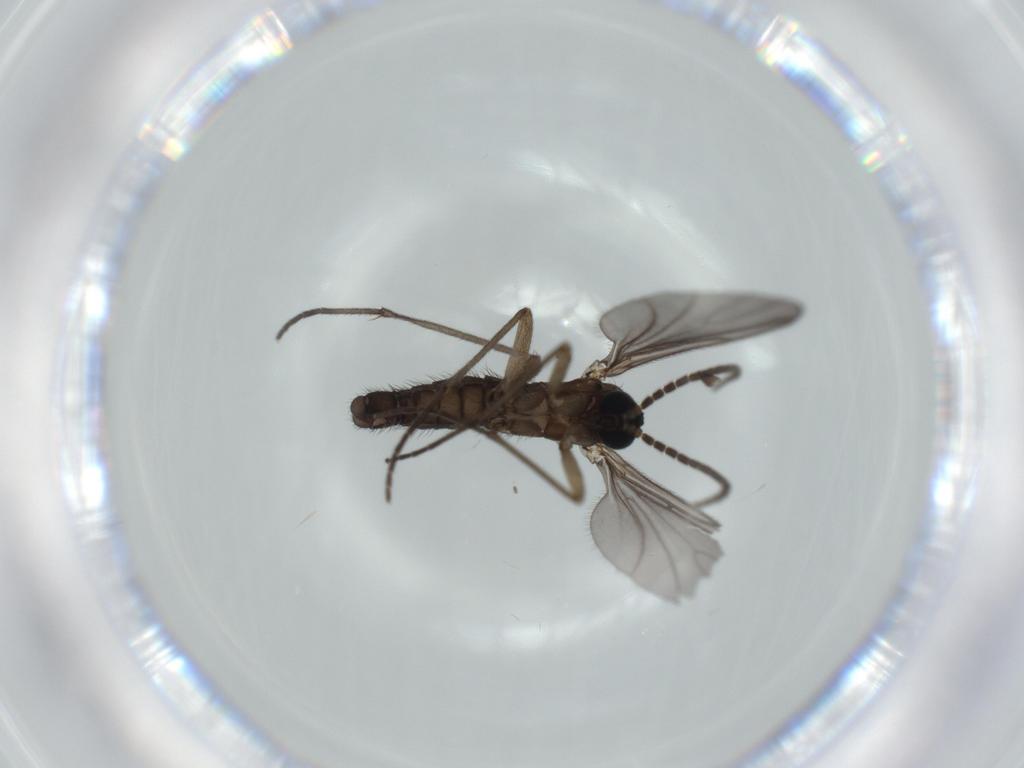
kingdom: Animalia
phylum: Arthropoda
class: Insecta
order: Diptera
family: Sciaridae
